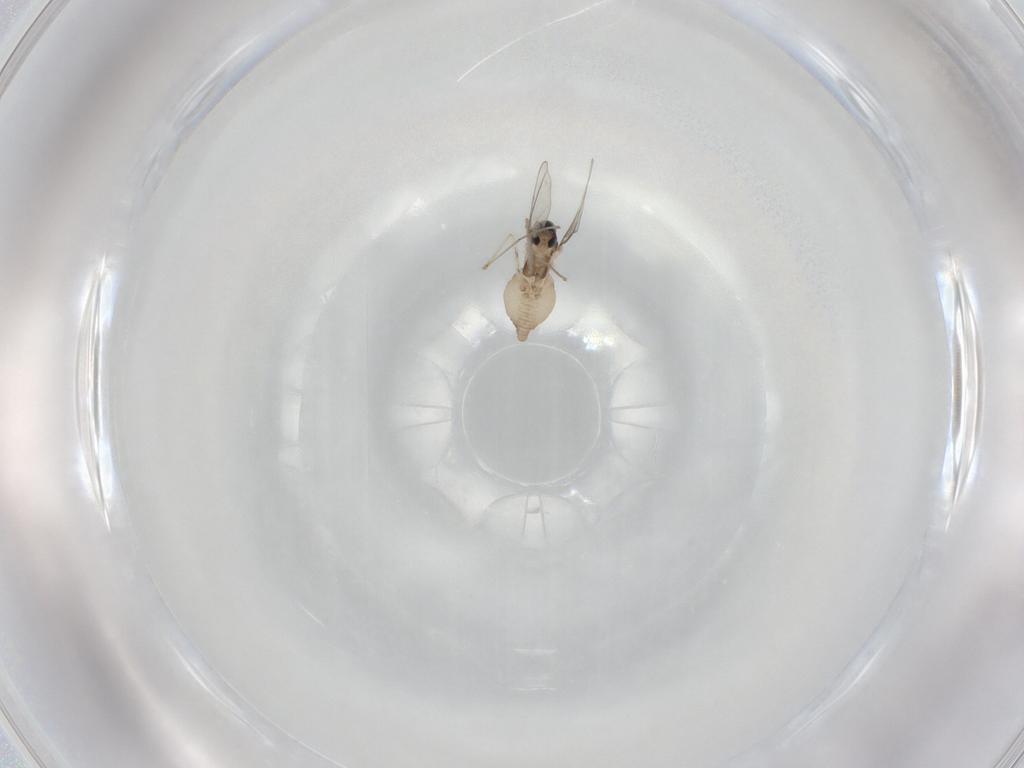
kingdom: Animalia
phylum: Arthropoda
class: Insecta
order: Diptera
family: Cecidomyiidae
